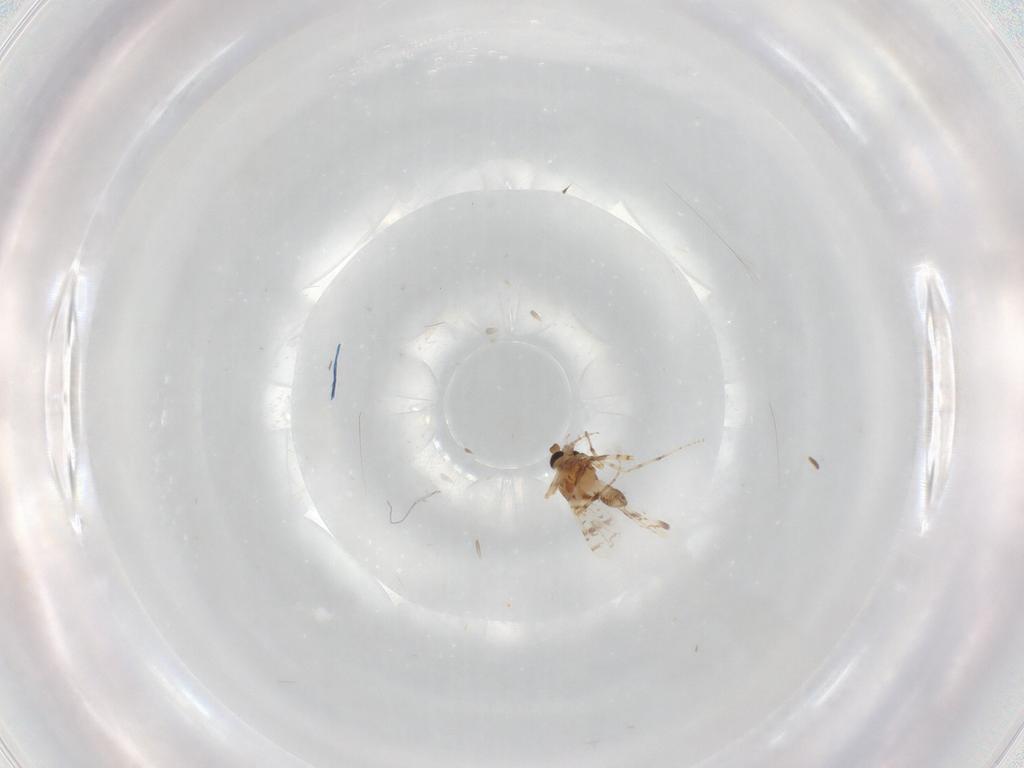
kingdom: Animalia
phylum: Arthropoda
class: Insecta
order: Diptera
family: Ceratopogonidae
